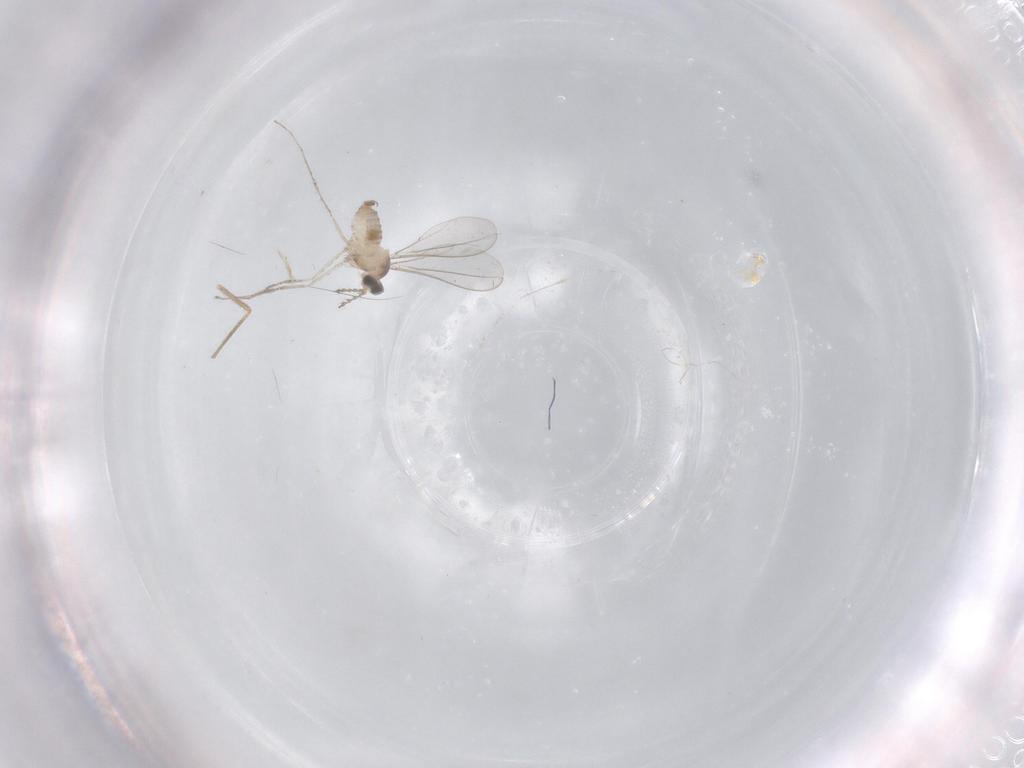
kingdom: Animalia
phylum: Arthropoda
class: Insecta
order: Diptera
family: Cecidomyiidae
